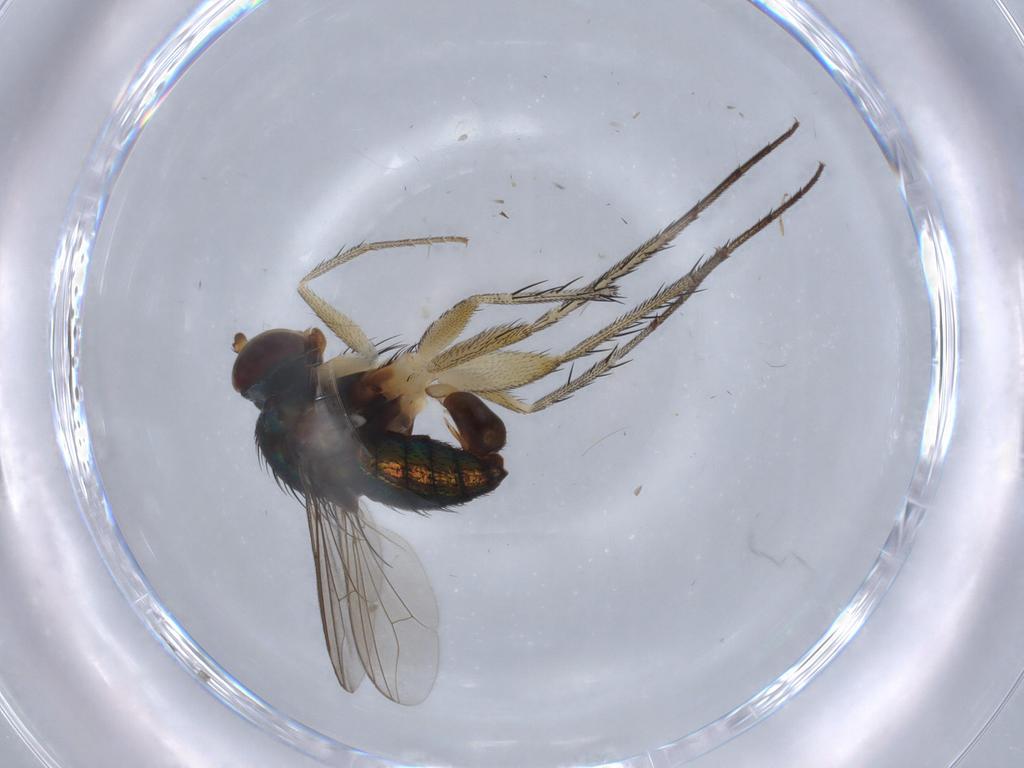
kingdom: Animalia
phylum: Arthropoda
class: Insecta
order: Diptera
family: Dolichopodidae
